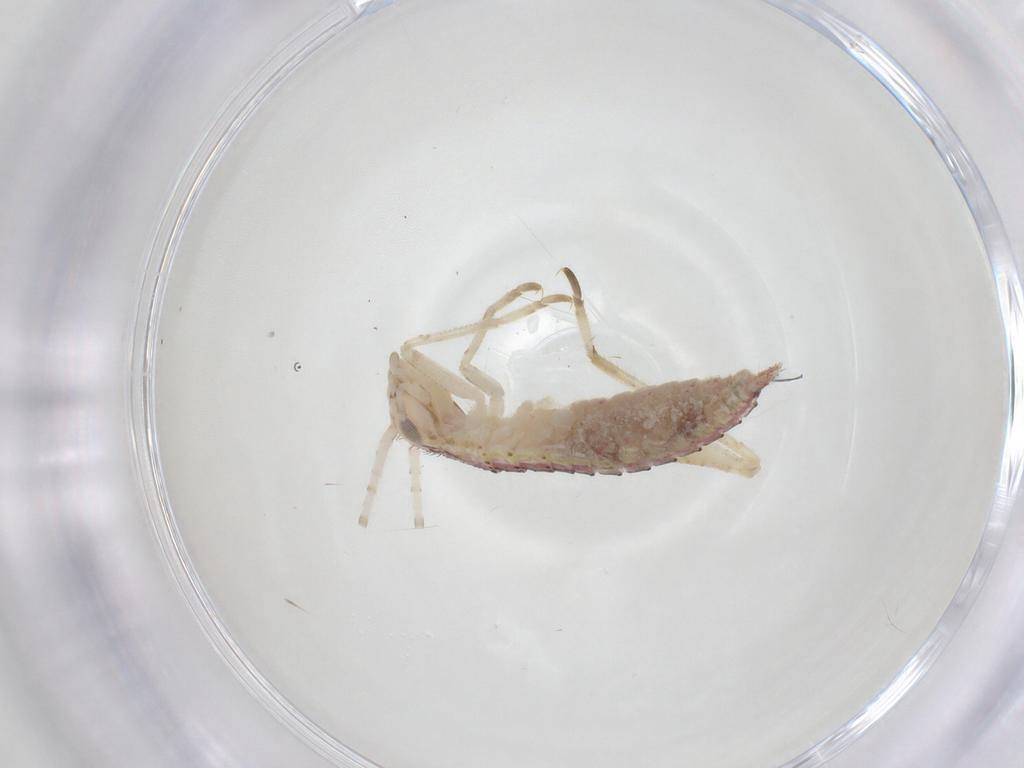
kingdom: Animalia
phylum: Arthropoda
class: Insecta
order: Orthoptera
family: Oecanthidae
